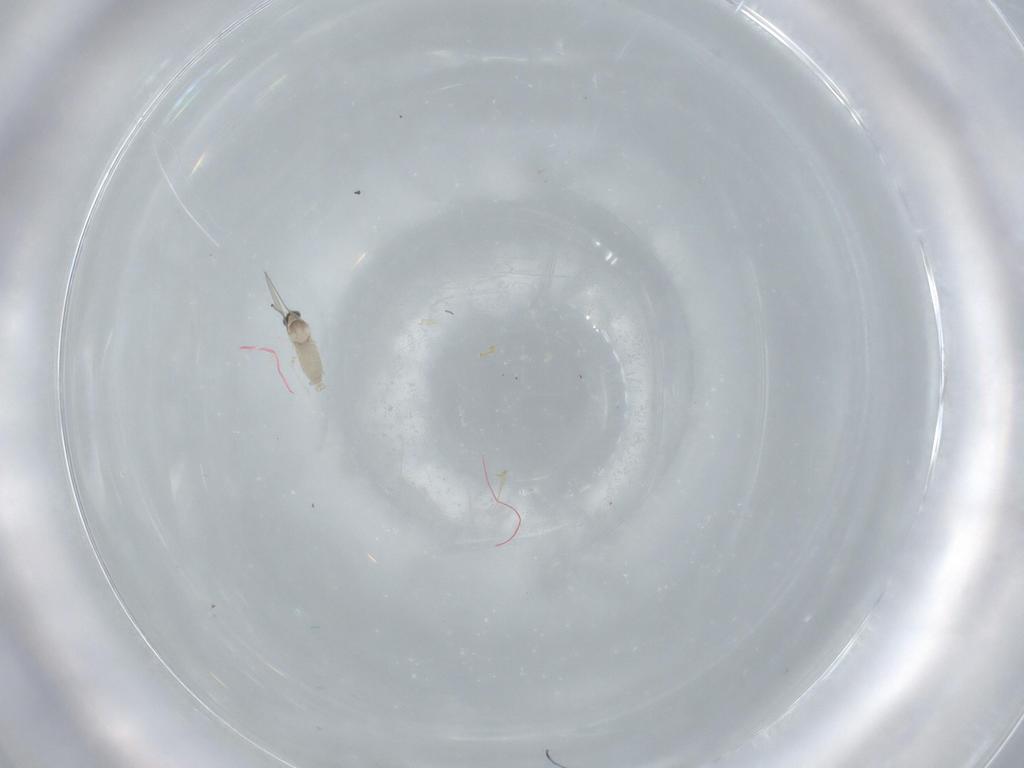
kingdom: Animalia
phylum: Arthropoda
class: Insecta
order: Diptera
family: Cecidomyiidae
